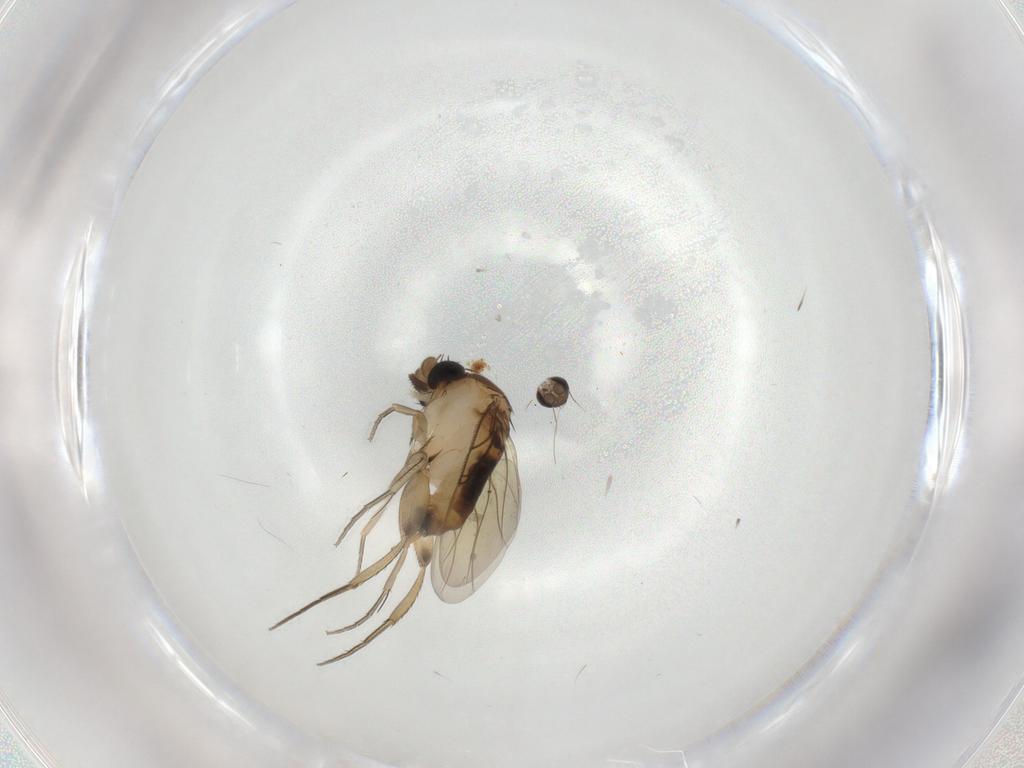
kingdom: Animalia
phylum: Arthropoda
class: Insecta
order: Diptera
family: Phoridae
